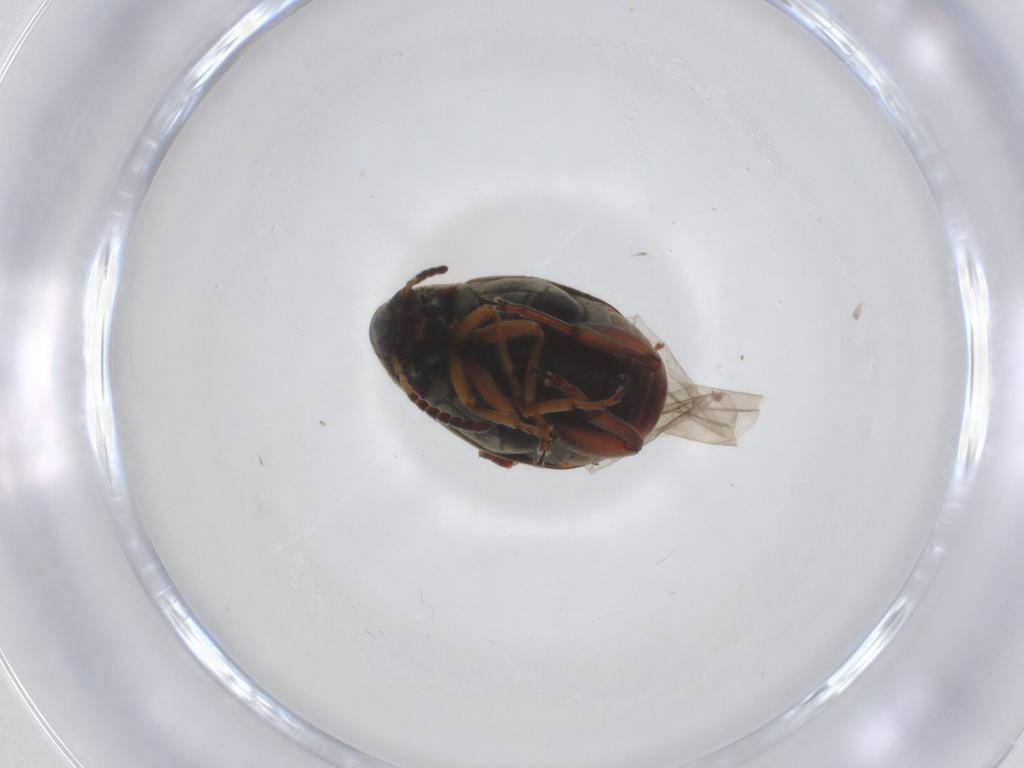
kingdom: Animalia
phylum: Arthropoda
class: Insecta
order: Coleoptera
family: Chrysomelidae
